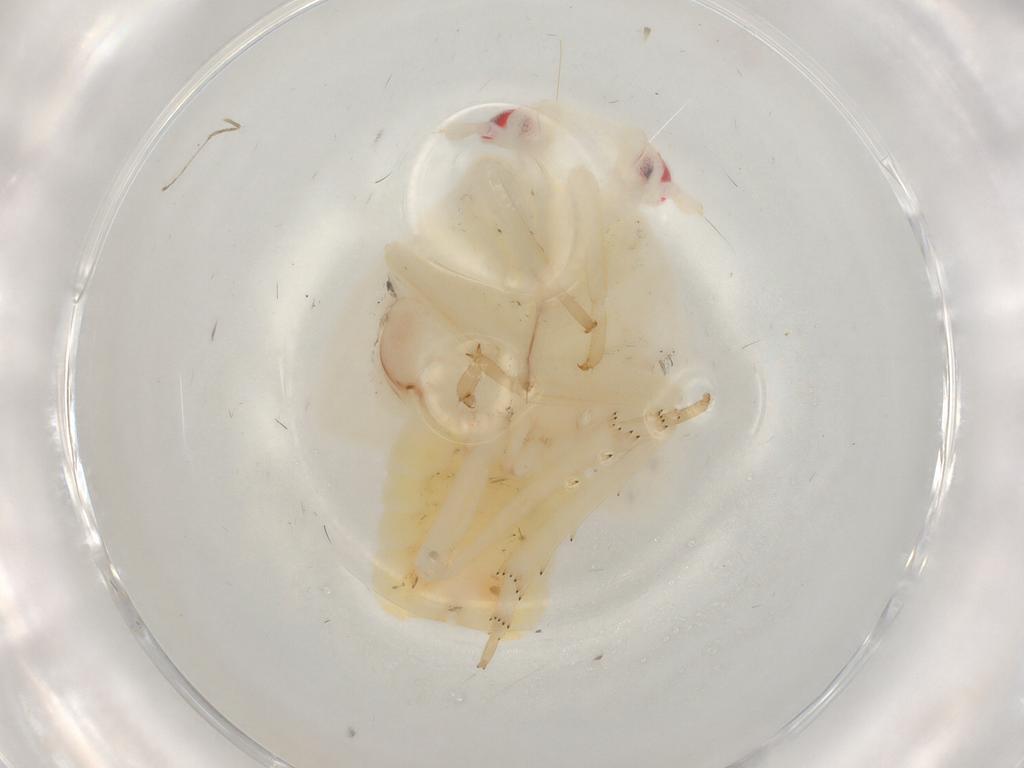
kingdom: Animalia
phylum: Arthropoda
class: Insecta
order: Hemiptera
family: Flatidae
